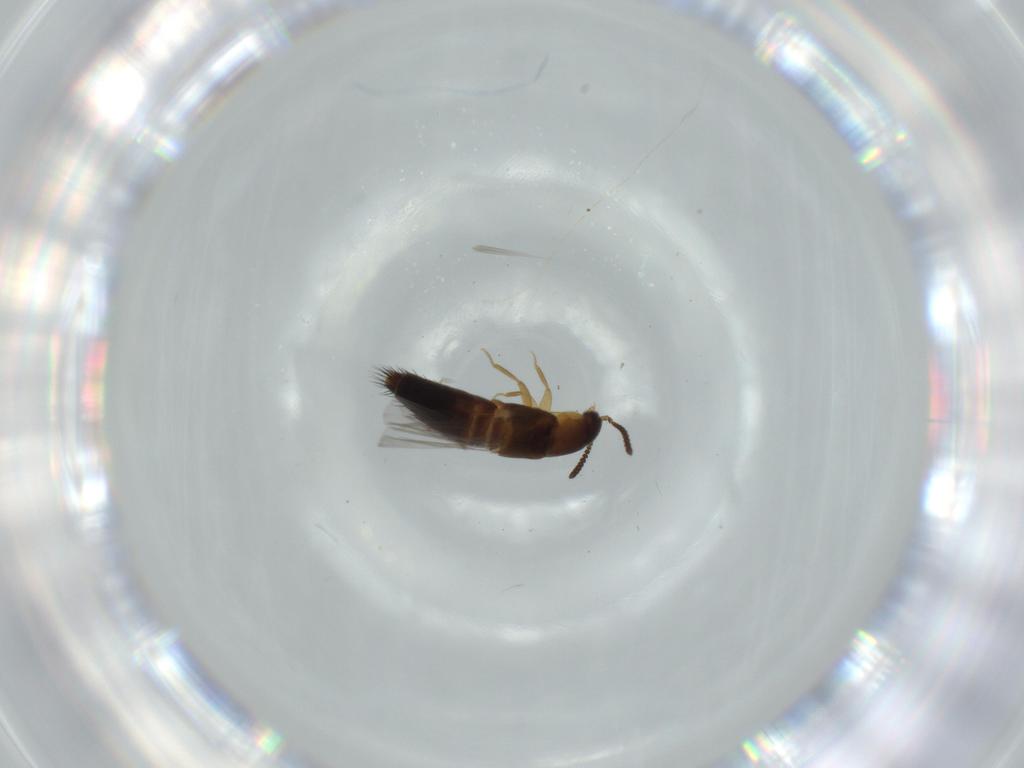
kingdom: Animalia
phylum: Arthropoda
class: Insecta
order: Coleoptera
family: Staphylinidae
